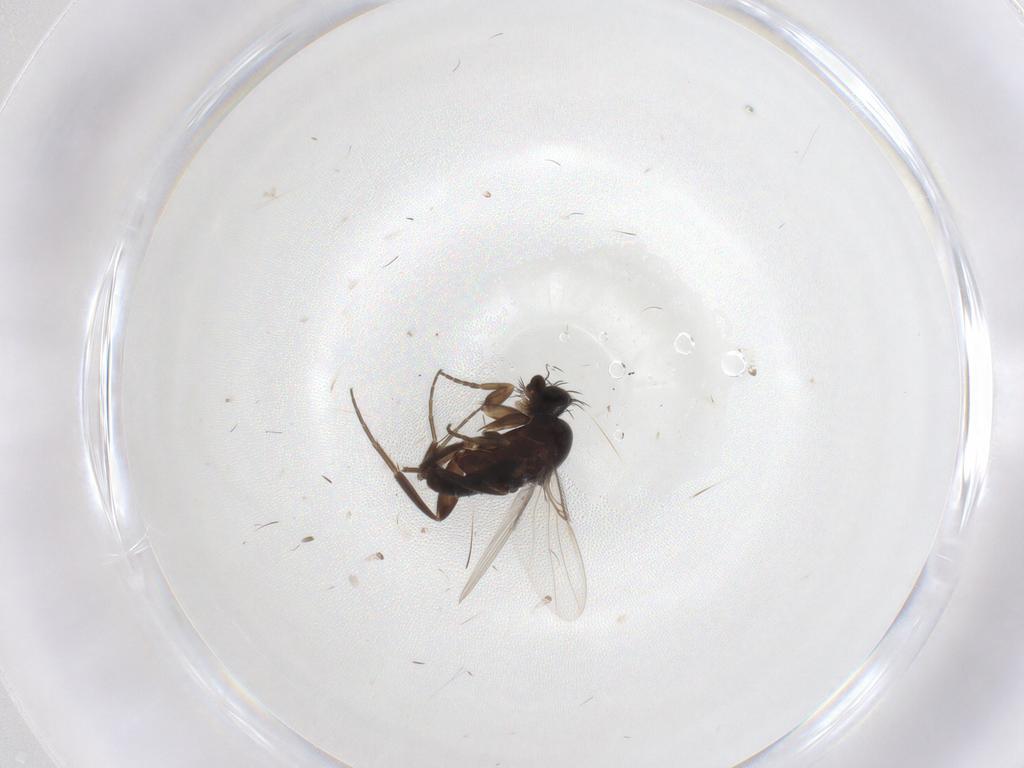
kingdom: Animalia
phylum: Arthropoda
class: Insecta
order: Diptera
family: Phoridae
